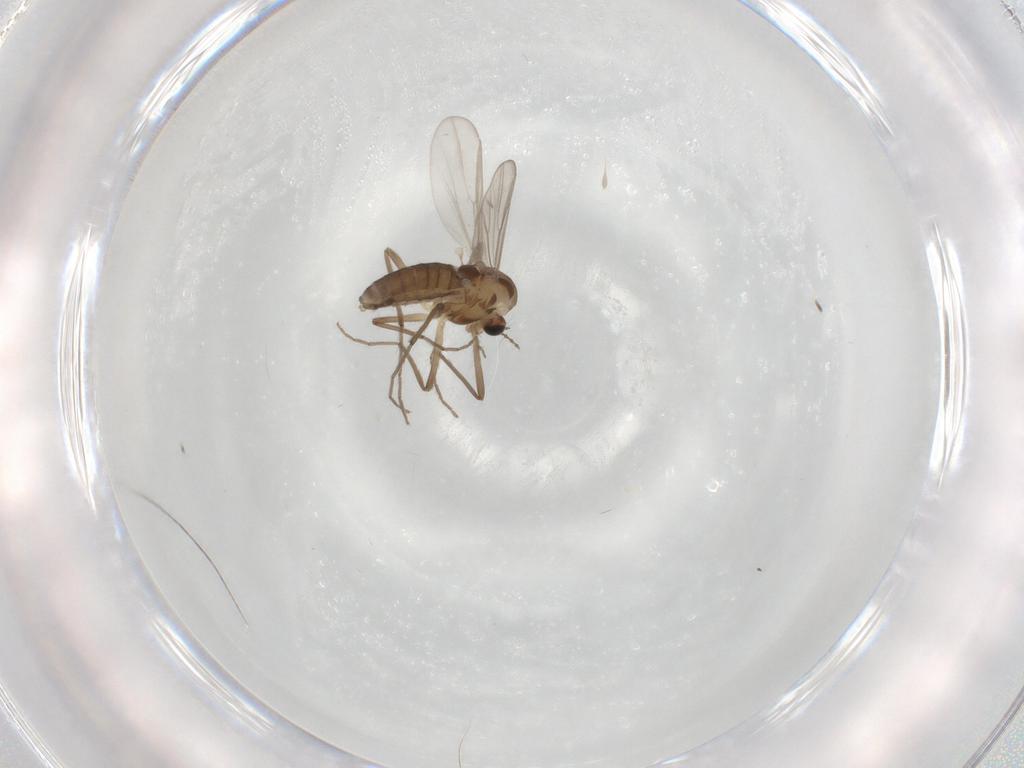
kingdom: Animalia
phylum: Arthropoda
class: Insecta
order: Diptera
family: Chironomidae
